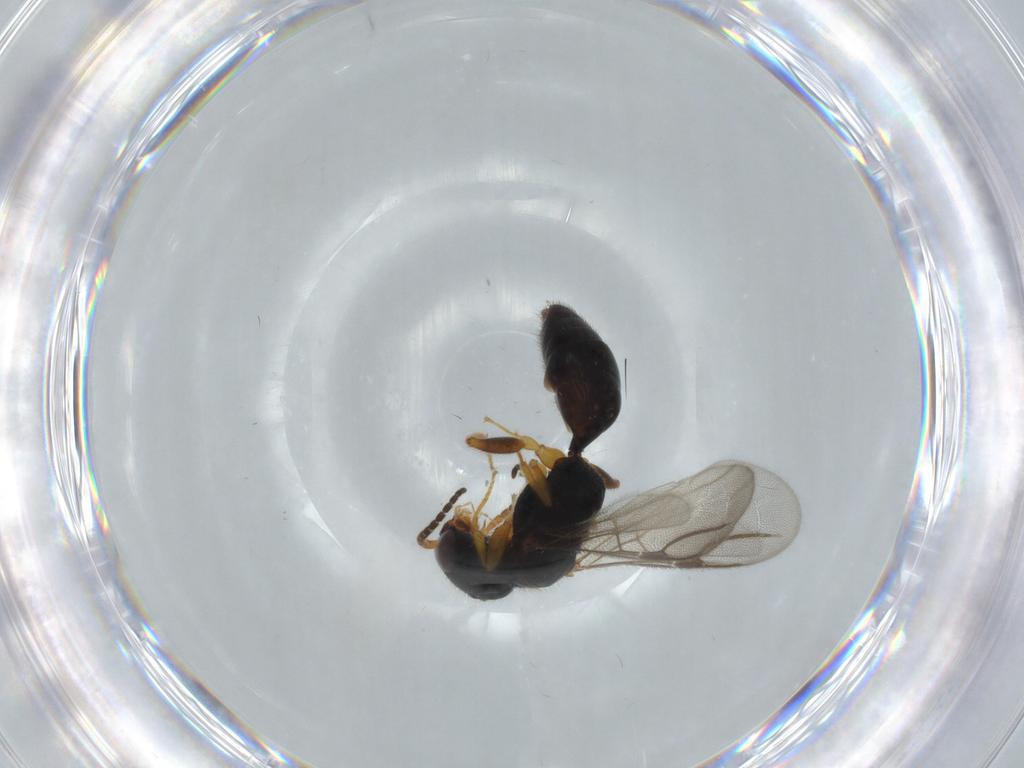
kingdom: Animalia
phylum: Arthropoda
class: Insecta
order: Hymenoptera
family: Bethylidae
